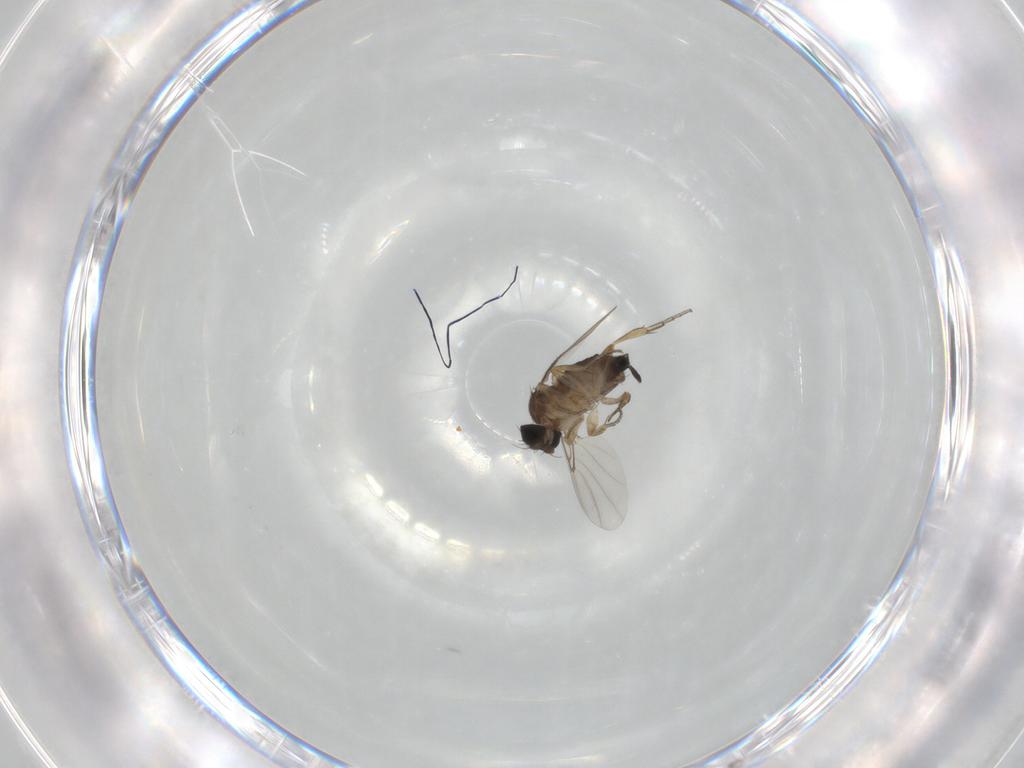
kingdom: Animalia
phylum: Arthropoda
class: Insecta
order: Diptera
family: Phoridae
